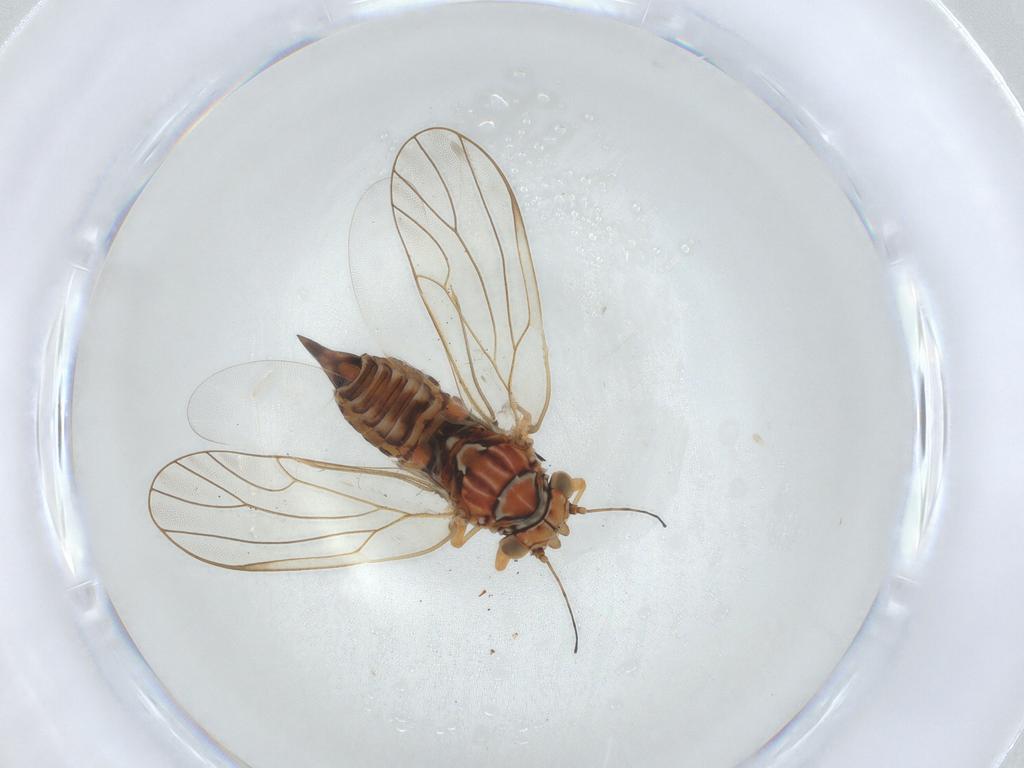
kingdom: Animalia
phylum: Arthropoda
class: Insecta
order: Hemiptera
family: Psyllidae
